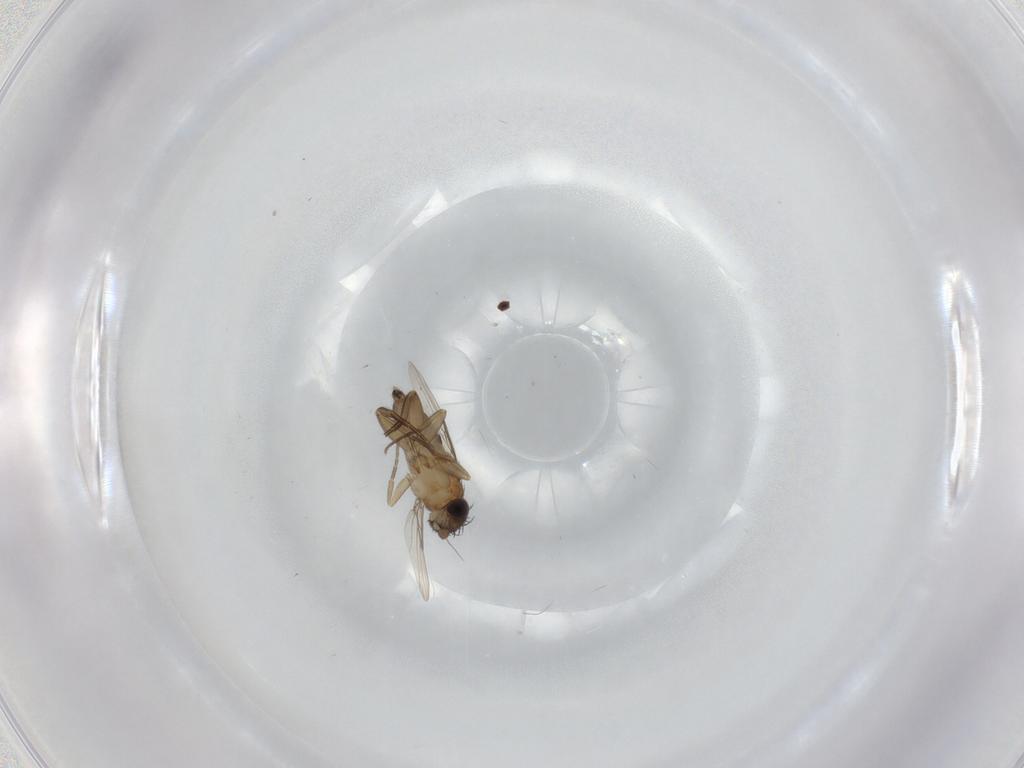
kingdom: Animalia
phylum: Arthropoda
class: Insecta
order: Diptera
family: Phoridae
